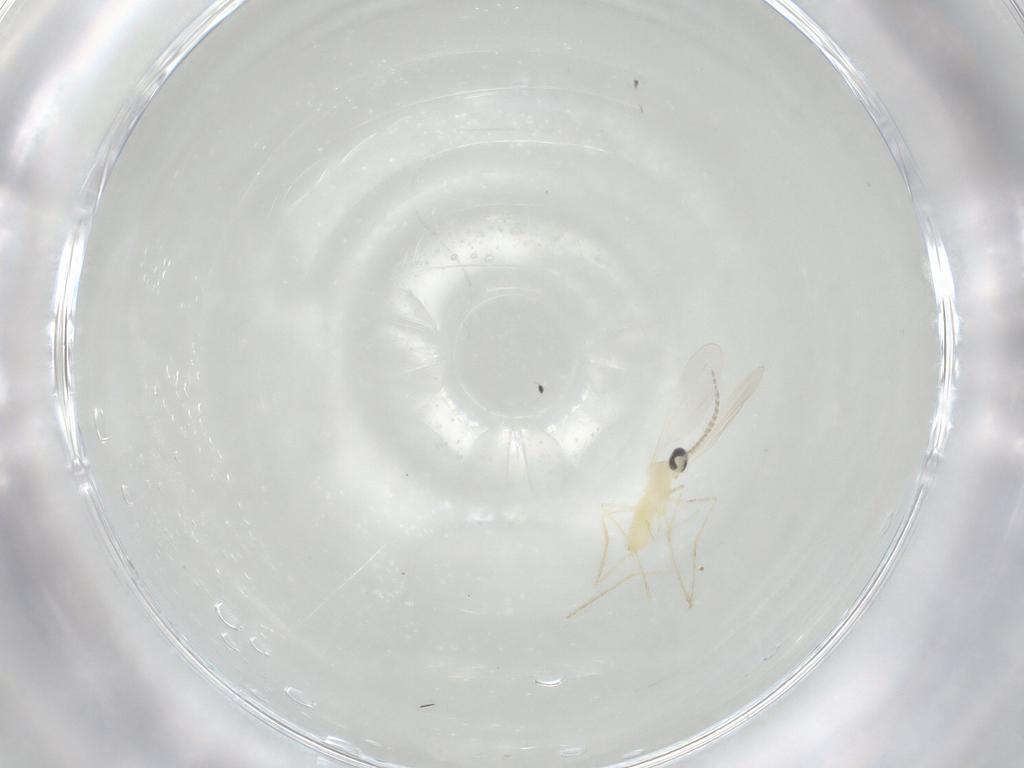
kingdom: Animalia
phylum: Arthropoda
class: Insecta
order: Diptera
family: Cecidomyiidae
